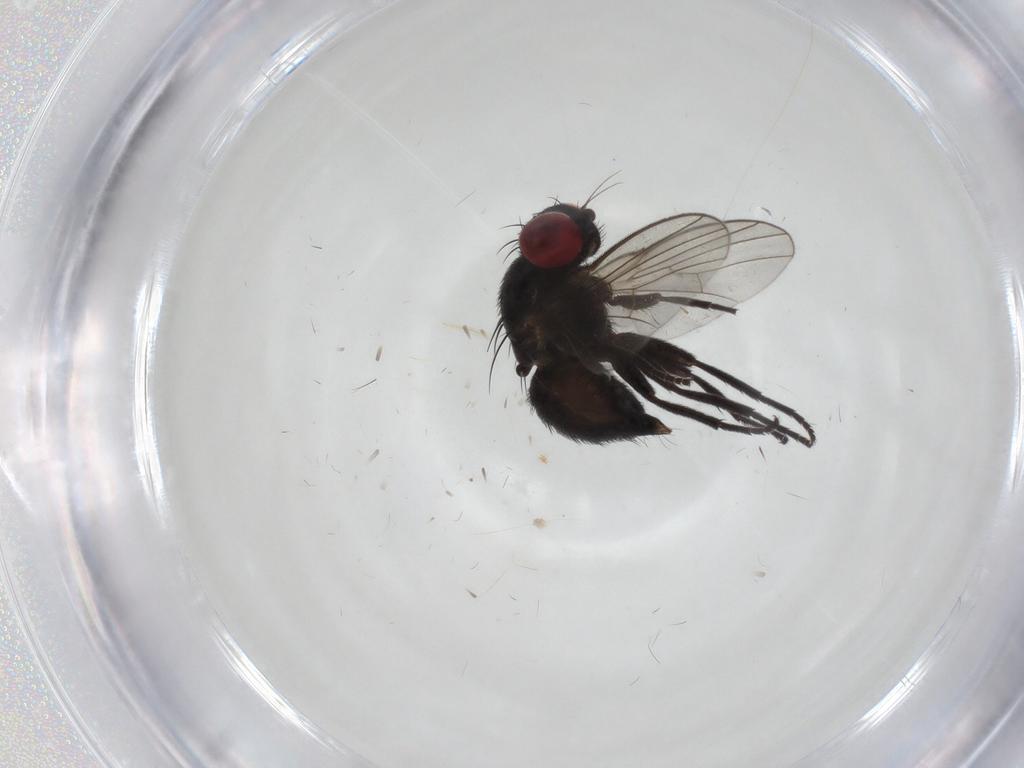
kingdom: Animalia
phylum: Arthropoda
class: Insecta
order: Diptera
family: Agromyzidae
